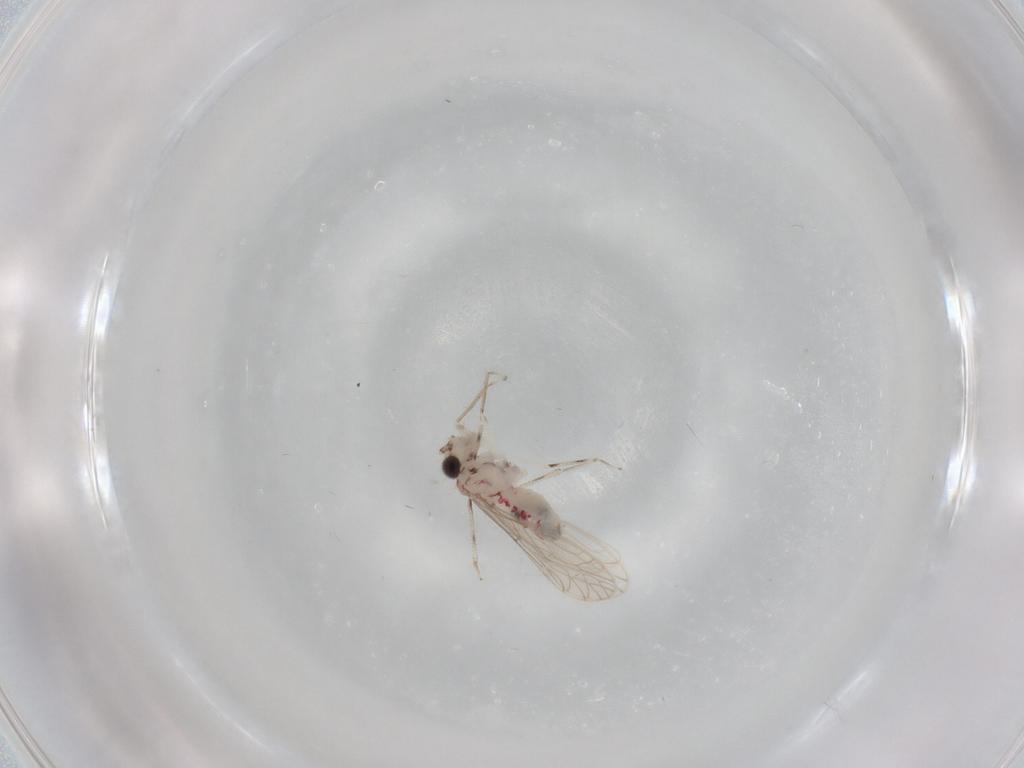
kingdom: Animalia
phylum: Arthropoda
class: Insecta
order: Psocodea
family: Caeciliusidae
